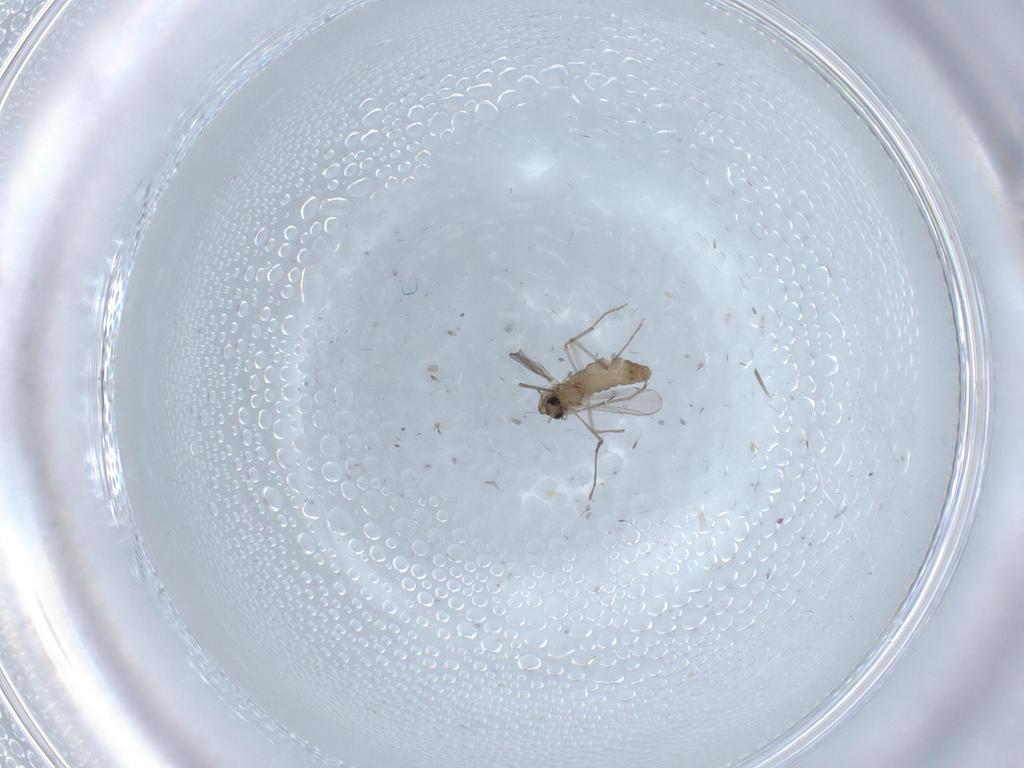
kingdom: Animalia
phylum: Arthropoda
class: Insecta
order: Diptera
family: Chironomidae
